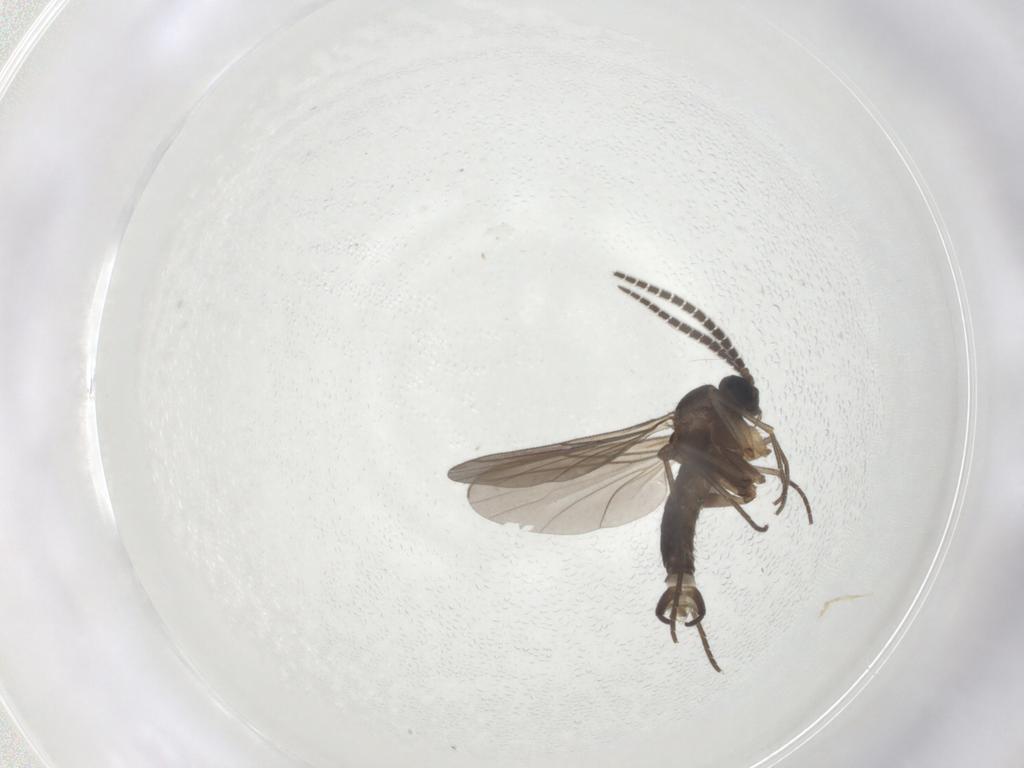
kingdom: Animalia
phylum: Arthropoda
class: Insecta
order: Diptera
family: Sciaridae
